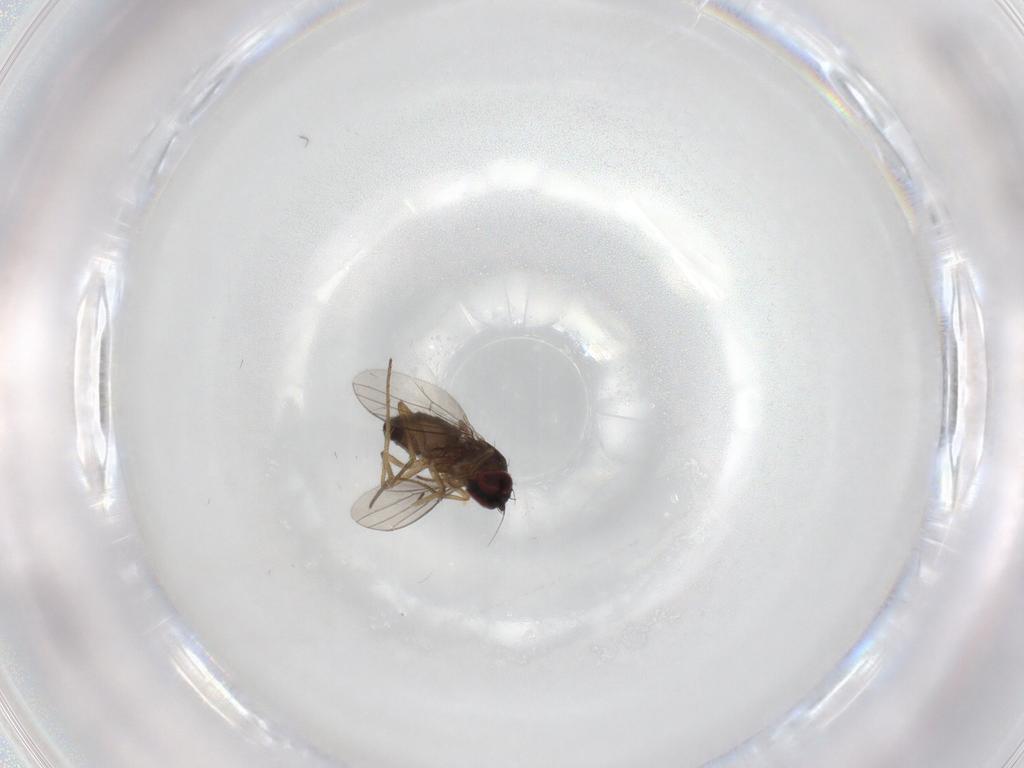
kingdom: Animalia
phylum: Arthropoda
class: Insecta
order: Diptera
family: Dolichopodidae
